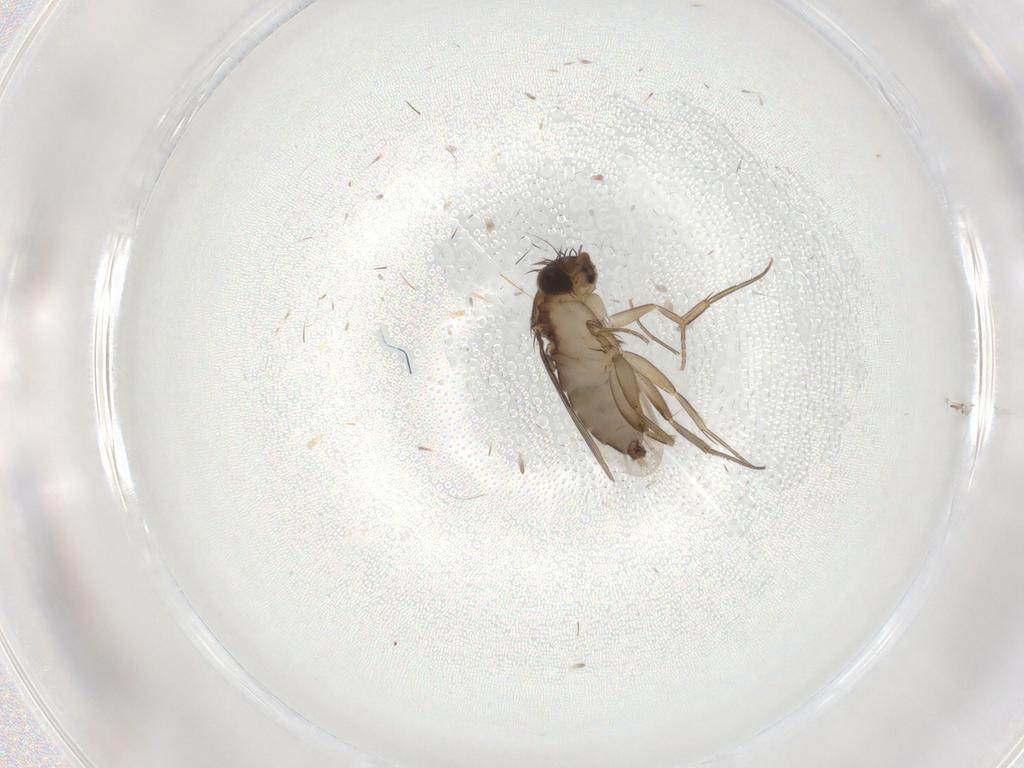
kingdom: Animalia
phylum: Arthropoda
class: Insecta
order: Diptera
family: Phoridae
